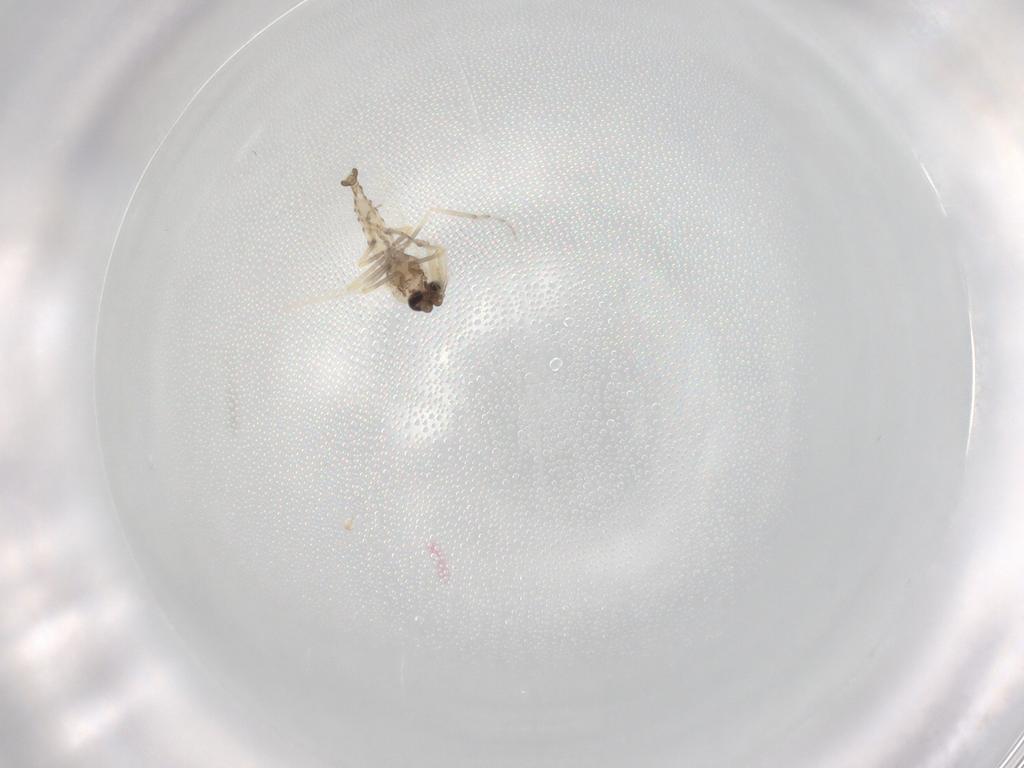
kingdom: Animalia
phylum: Arthropoda
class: Insecta
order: Diptera
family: Ceratopogonidae
